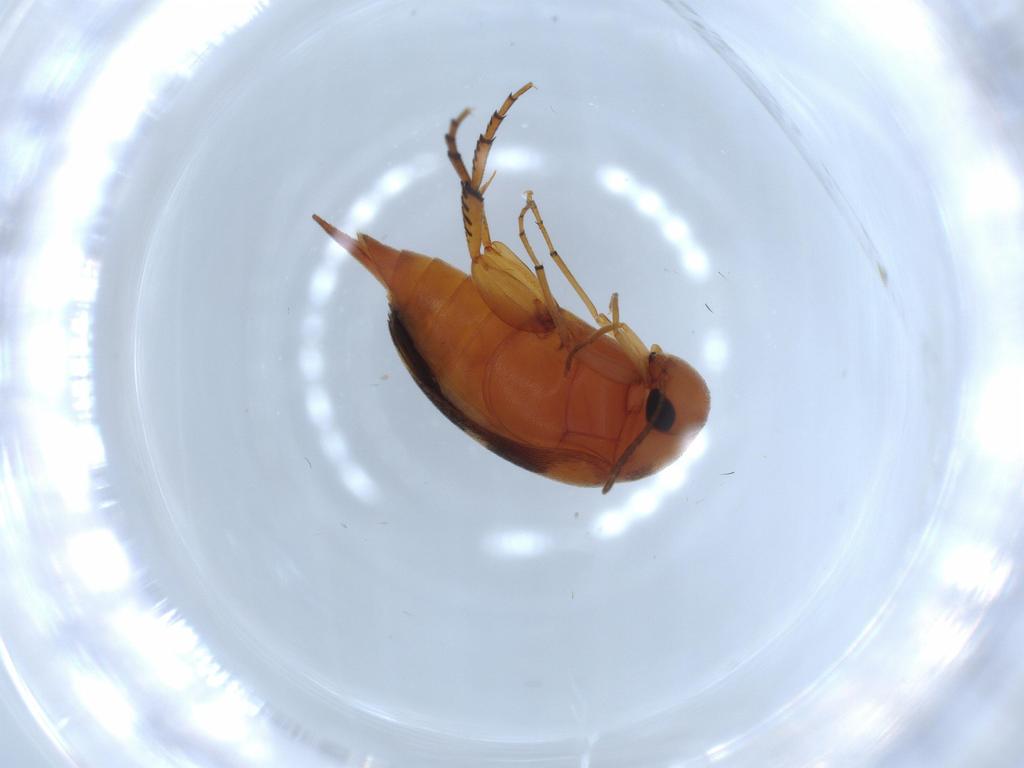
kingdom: Animalia
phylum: Arthropoda
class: Insecta
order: Coleoptera
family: Mordellidae
